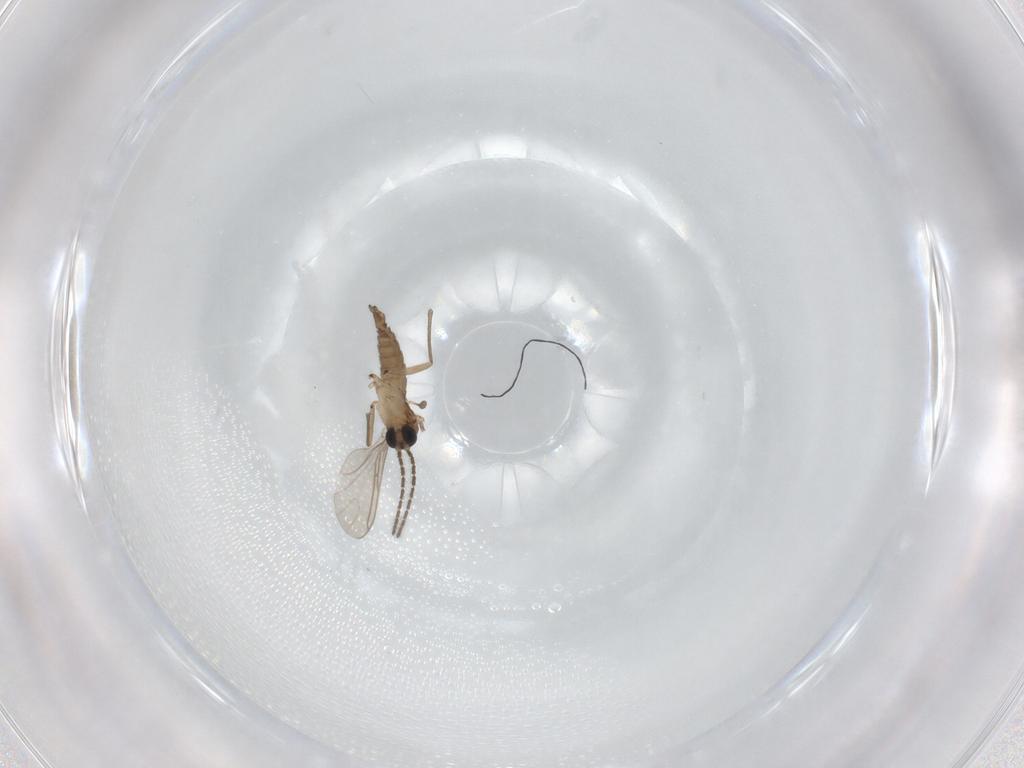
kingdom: Animalia
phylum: Arthropoda
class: Insecta
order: Diptera
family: Sciaridae
